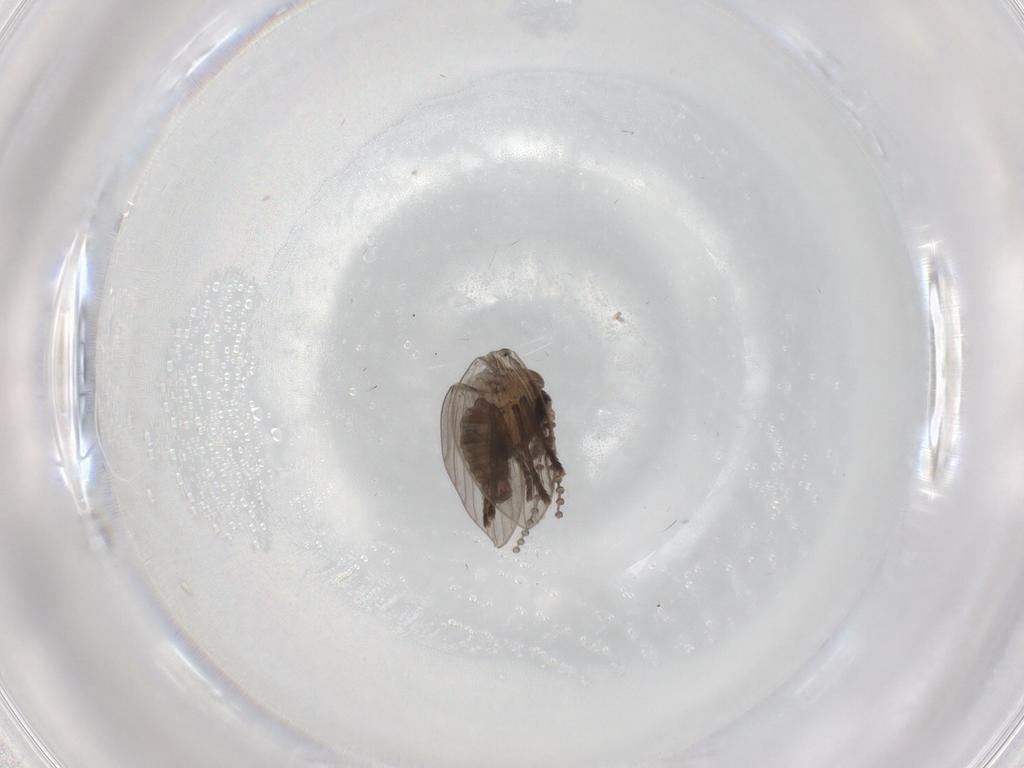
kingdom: Animalia
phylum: Arthropoda
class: Insecta
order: Diptera
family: Psychodidae
